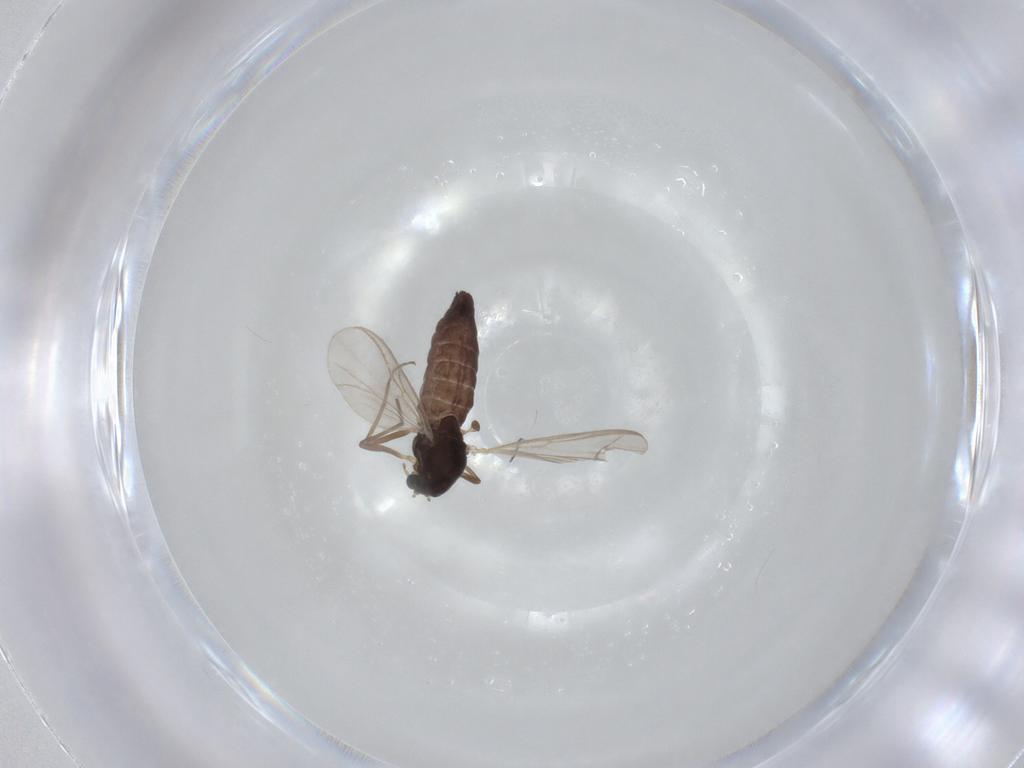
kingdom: Animalia
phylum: Arthropoda
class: Insecta
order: Diptera
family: Chironomidae
